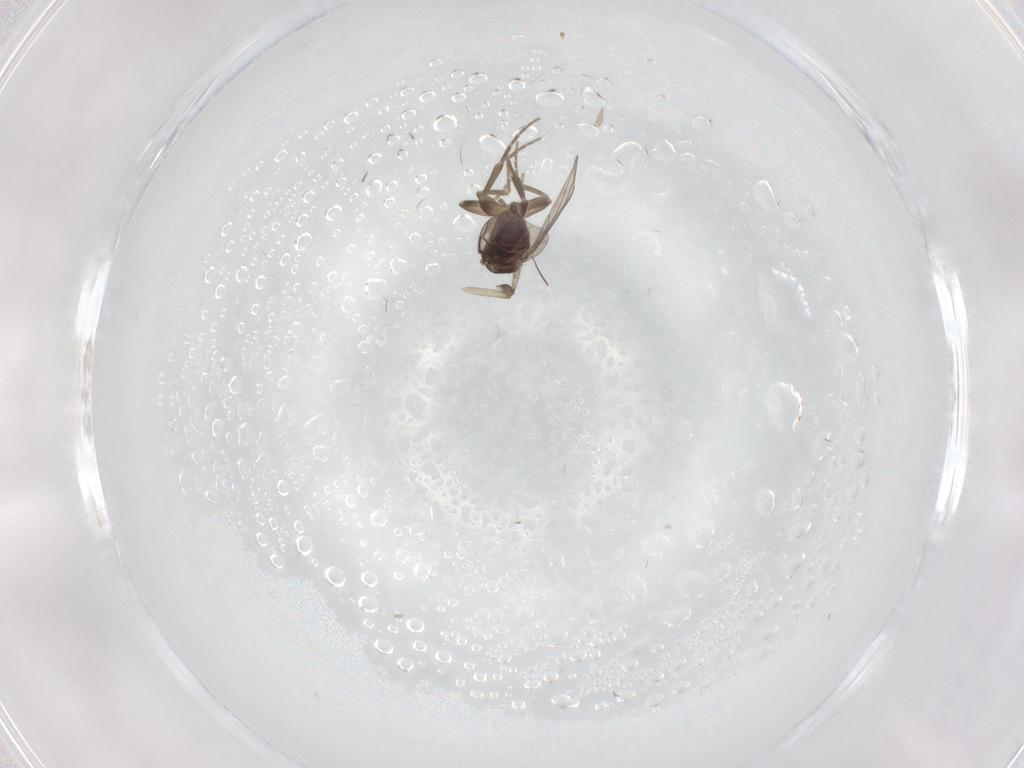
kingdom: Animalia
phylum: Arthropoda
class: Insecta
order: Diptera
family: Psychodidae
